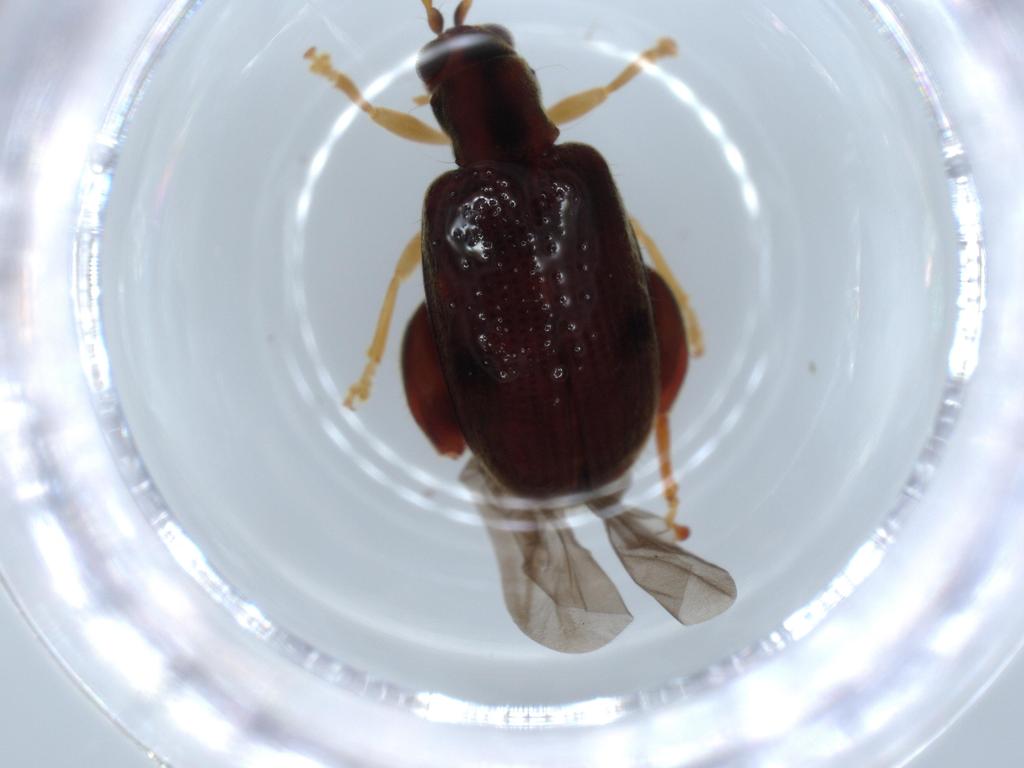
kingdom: Animalia
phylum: Arthropoda
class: Insecta
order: Coleoptera
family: Chrysomelidae
